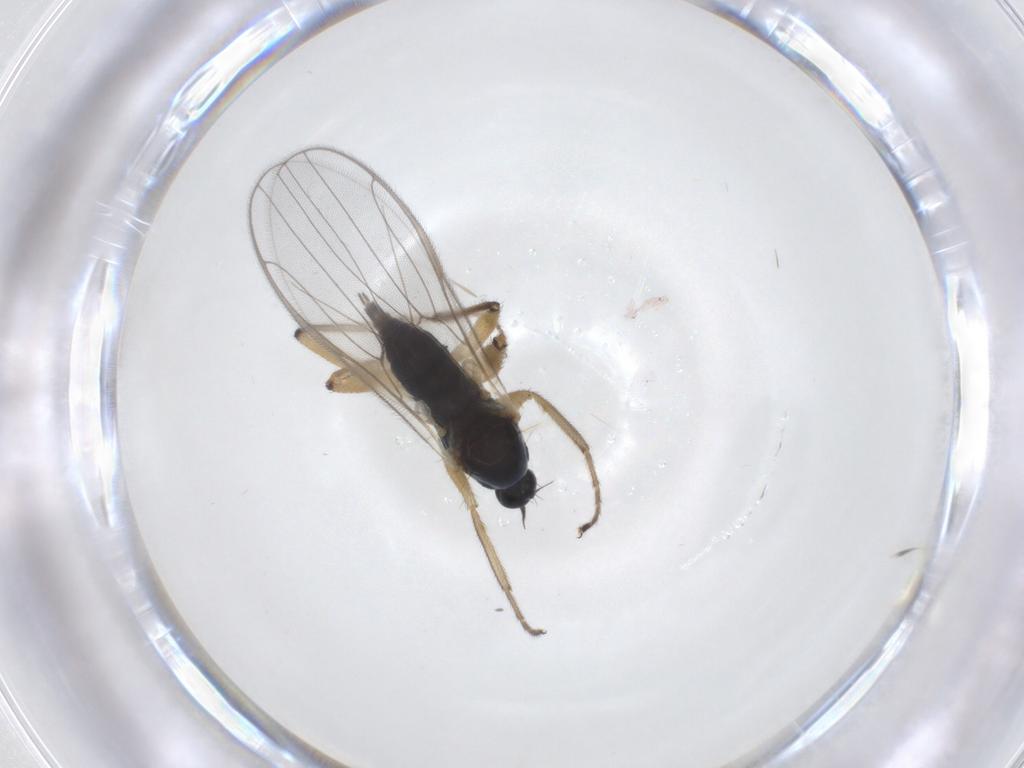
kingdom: Animalia
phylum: Arthropoda
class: Insecta
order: Diptera
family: Hybotidae
